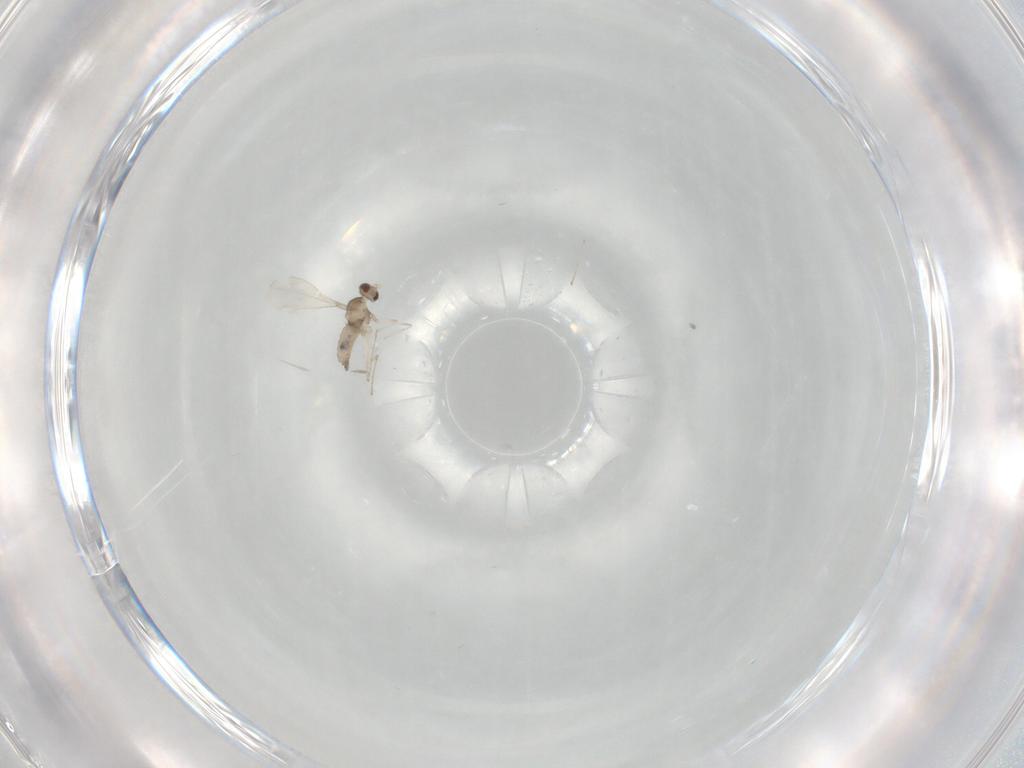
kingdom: Animalia
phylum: Arthropoda
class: Insecta
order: Diptera
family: Cecidomyiidae
